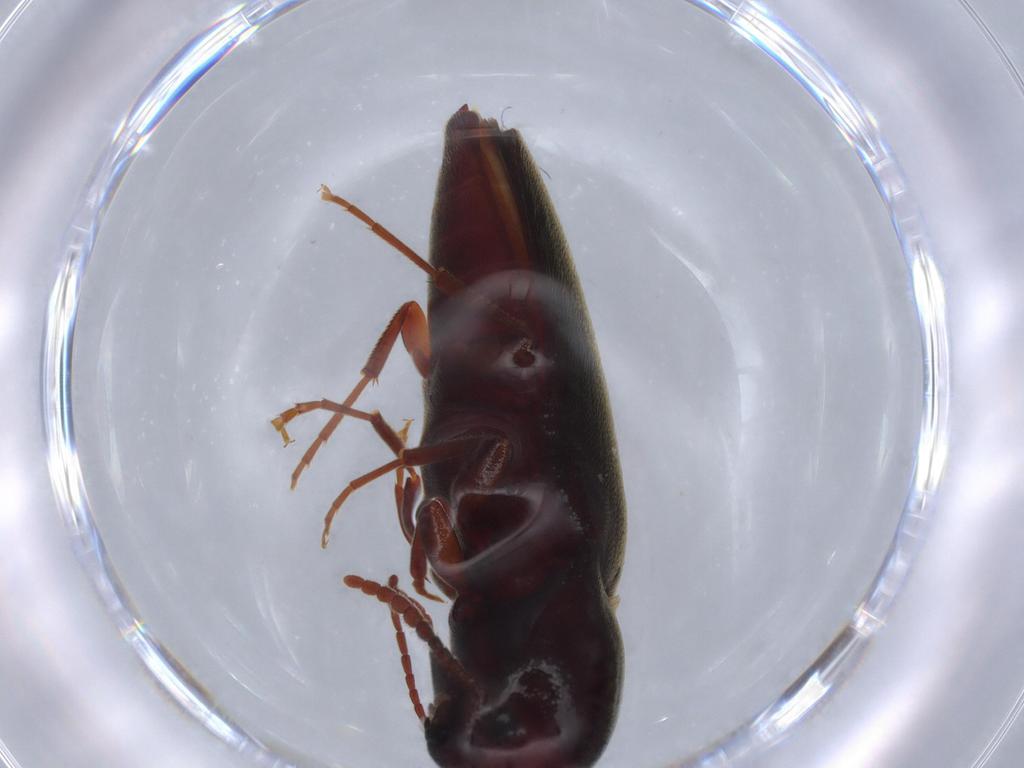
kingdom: Animalia
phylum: Arthropoda
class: Insecta
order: Coleoptera
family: Eucnemidae
